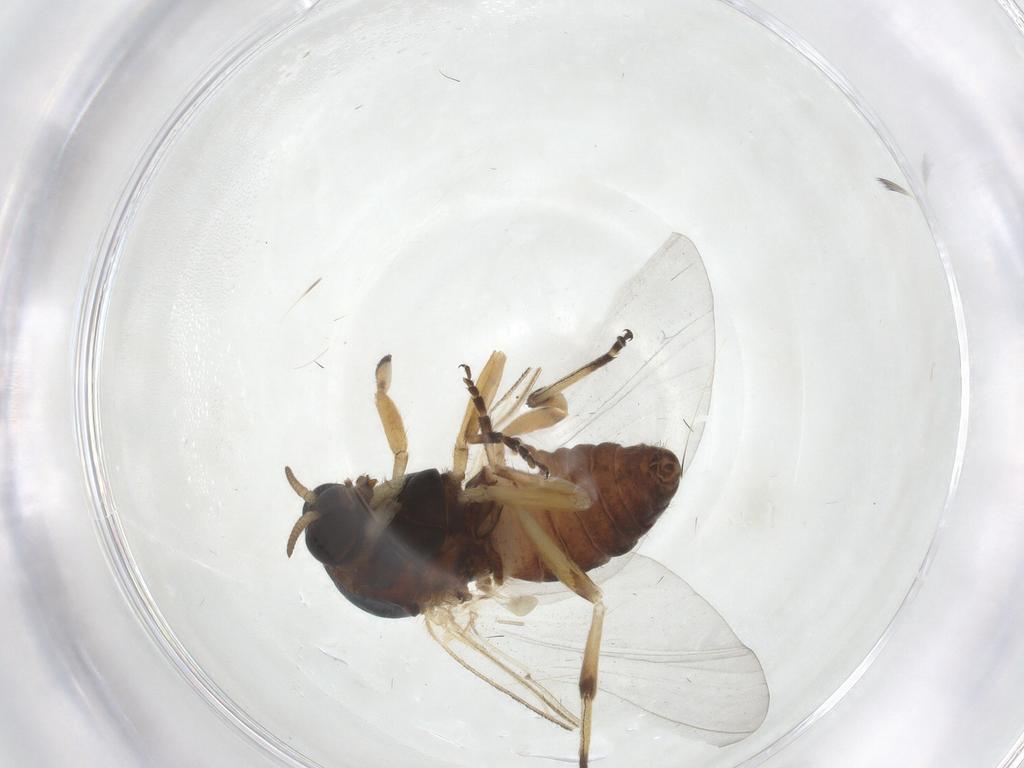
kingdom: Animalia
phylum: Arthropoda
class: Insecta
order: Diptera
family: Simuliidae
